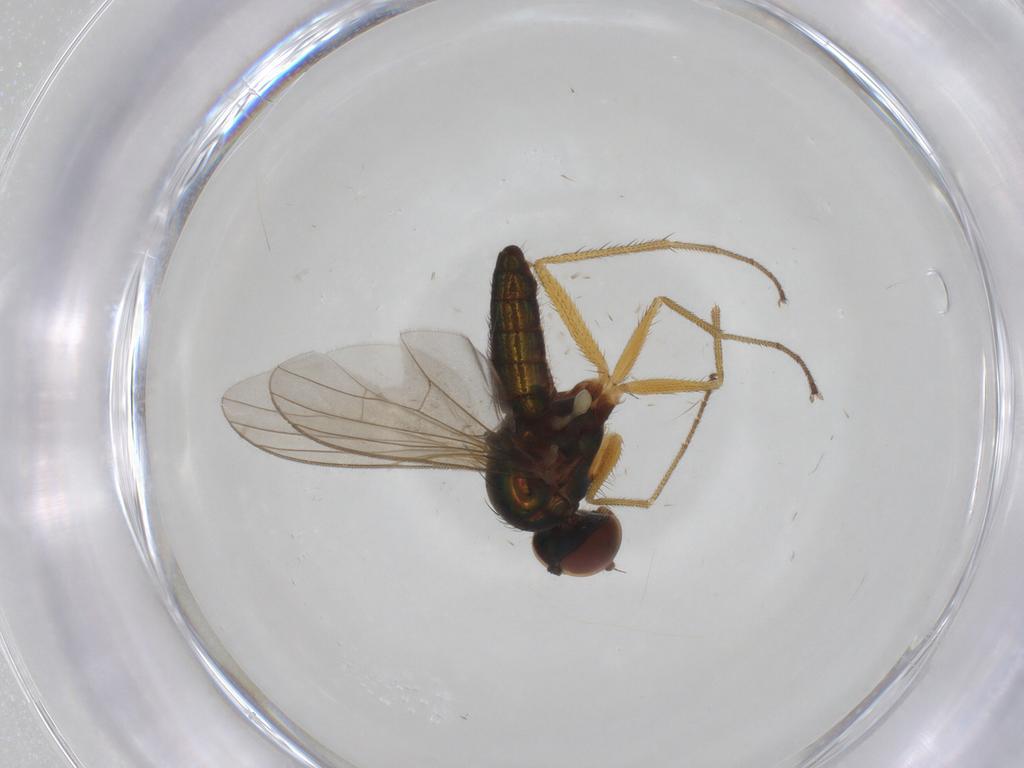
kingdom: Animalia
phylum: Arthropoda
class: Insecta
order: Diptera
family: Dolichopodidae
